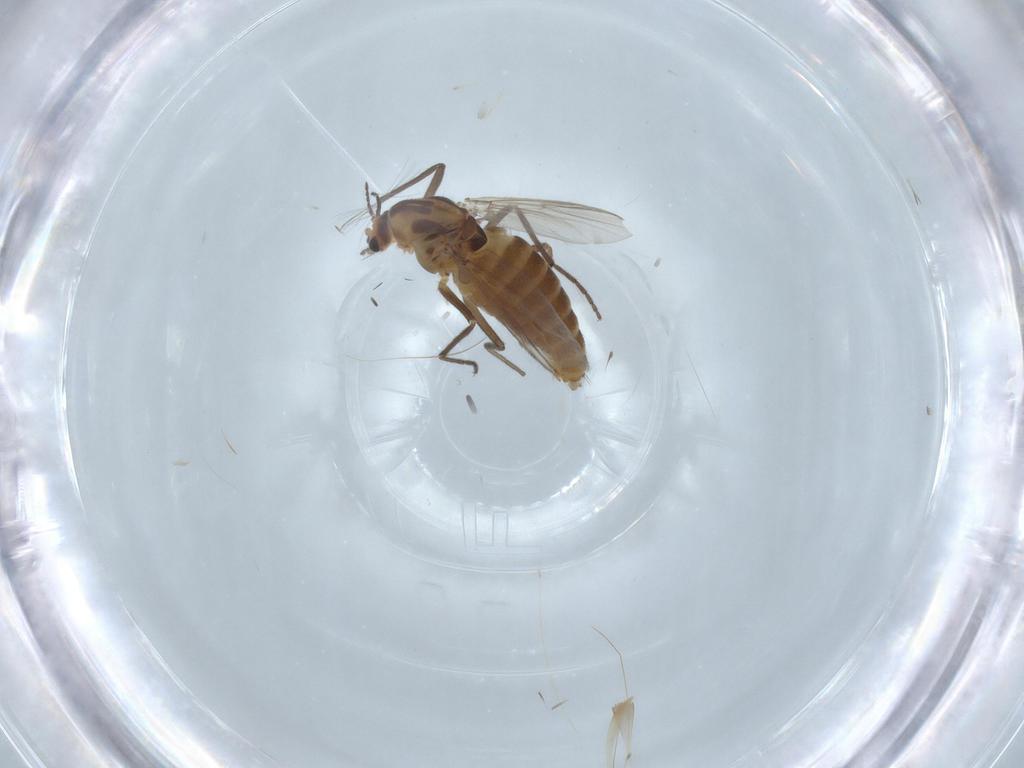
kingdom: Animalia
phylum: Arthropoda
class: Insecta
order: Diptera
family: Chironomidae
